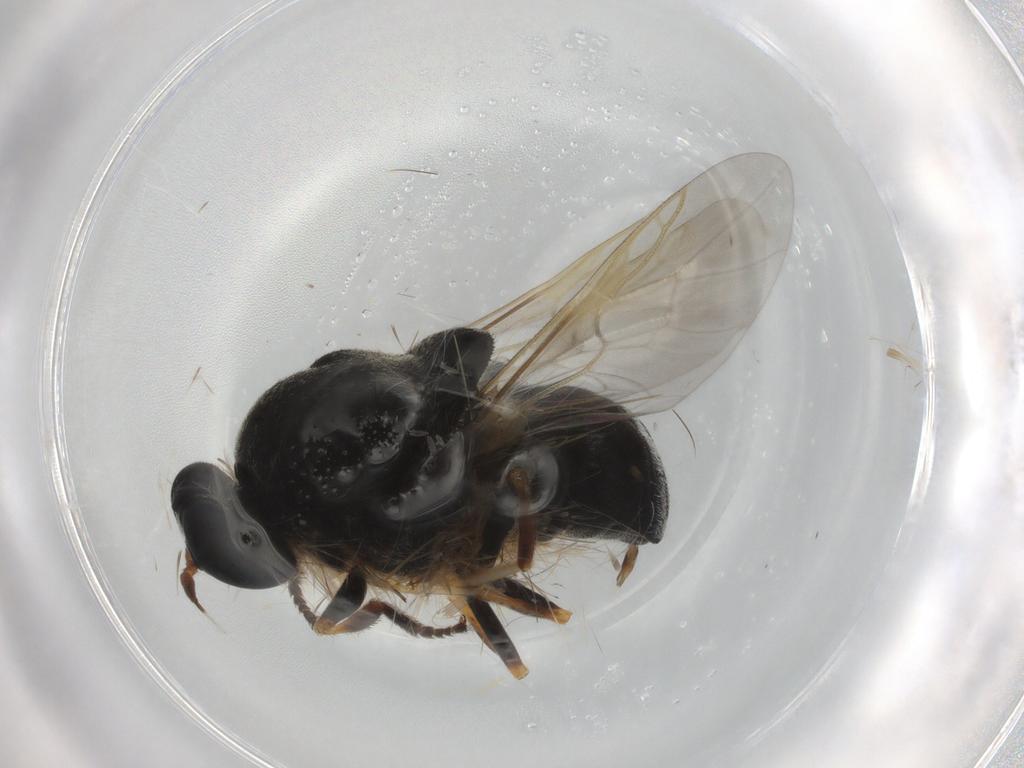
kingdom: Animalia
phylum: Arthropoda
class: Insecta
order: Diptera
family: Stratiomyidae
